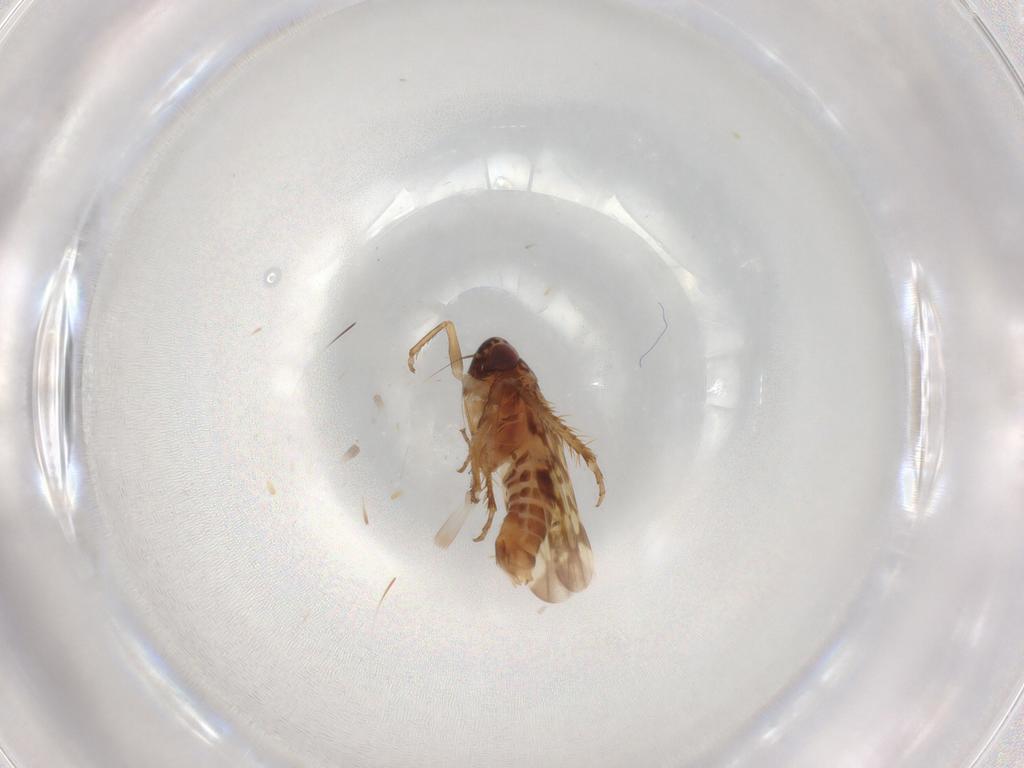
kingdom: Animalia
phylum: Arthropoda
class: Insecta
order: Hemiptera
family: Cicadellidae
